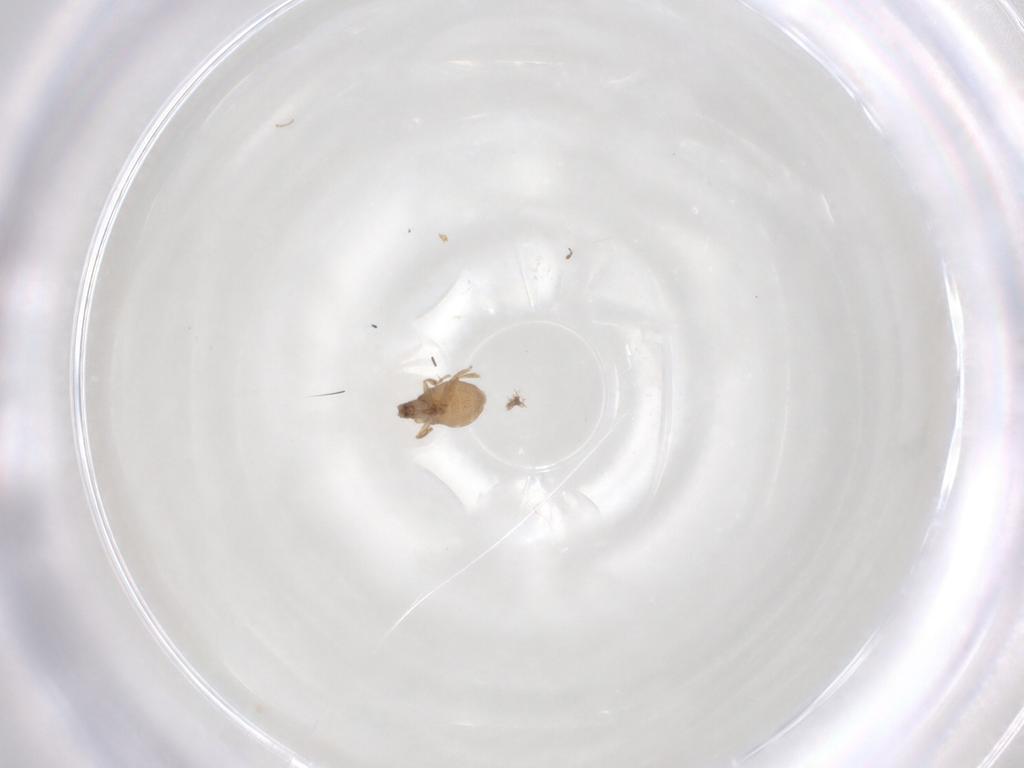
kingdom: Animalia
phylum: Arthropoda
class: Insecta
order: Diptera
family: Phoridae
